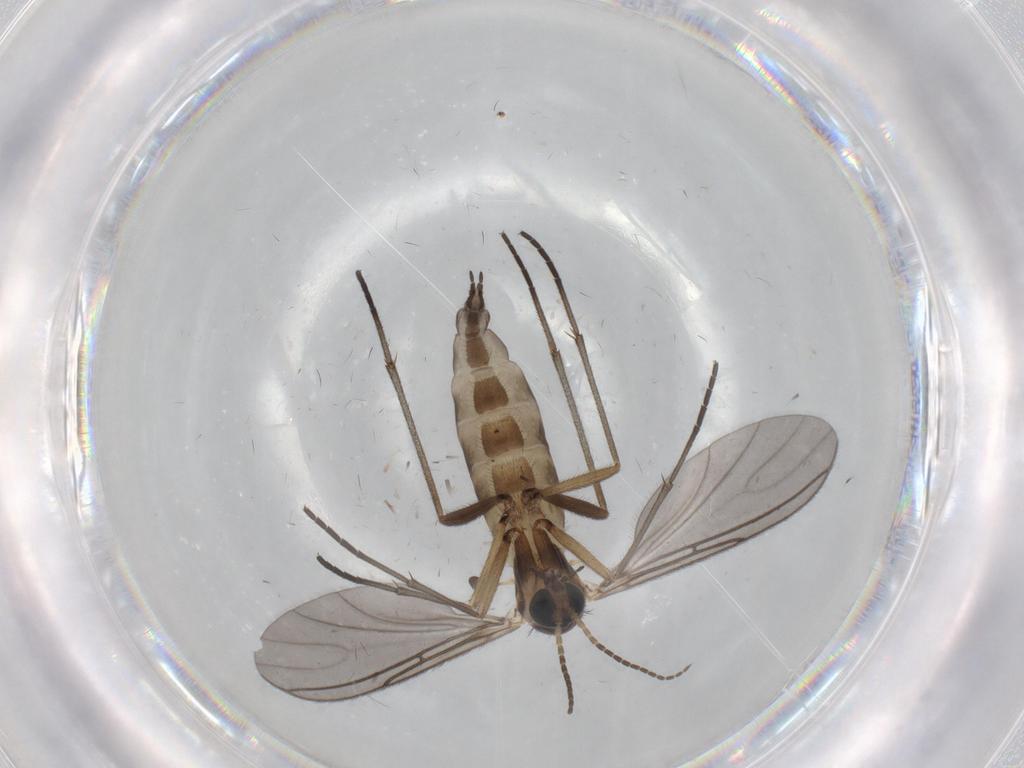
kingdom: Animalia
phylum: Arthropoda
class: Insecta
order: Diptera
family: Sciaridae
